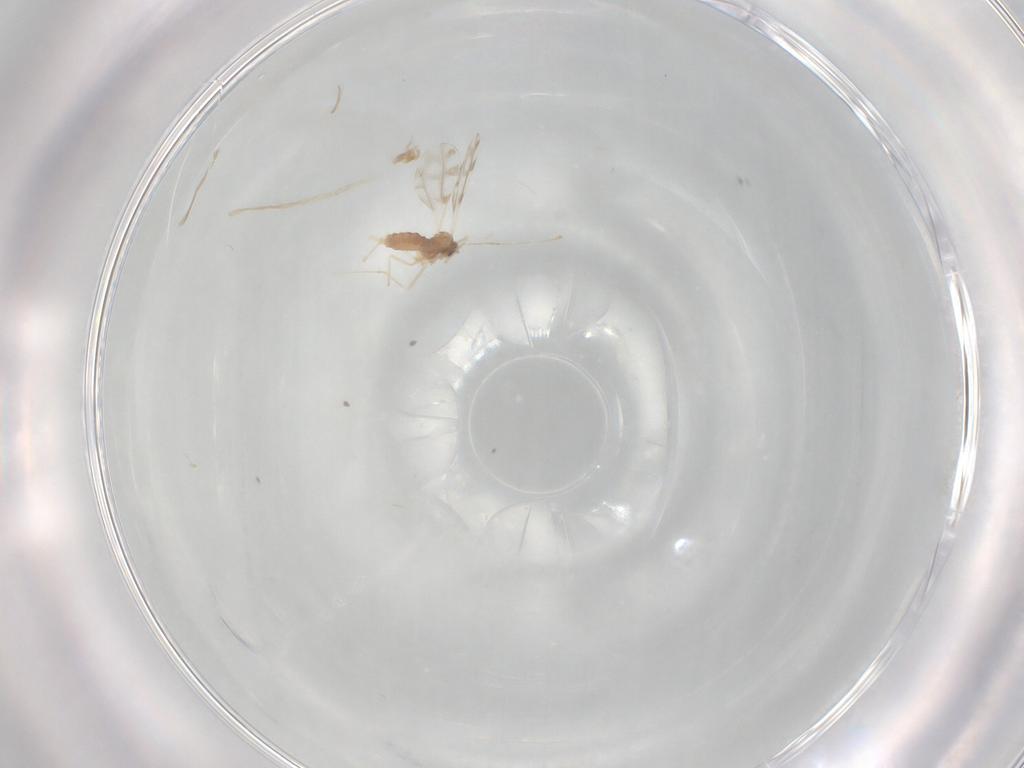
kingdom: Animalia
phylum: Arthropoda
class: Insecta
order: Diptera
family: Cecidomyiidae
